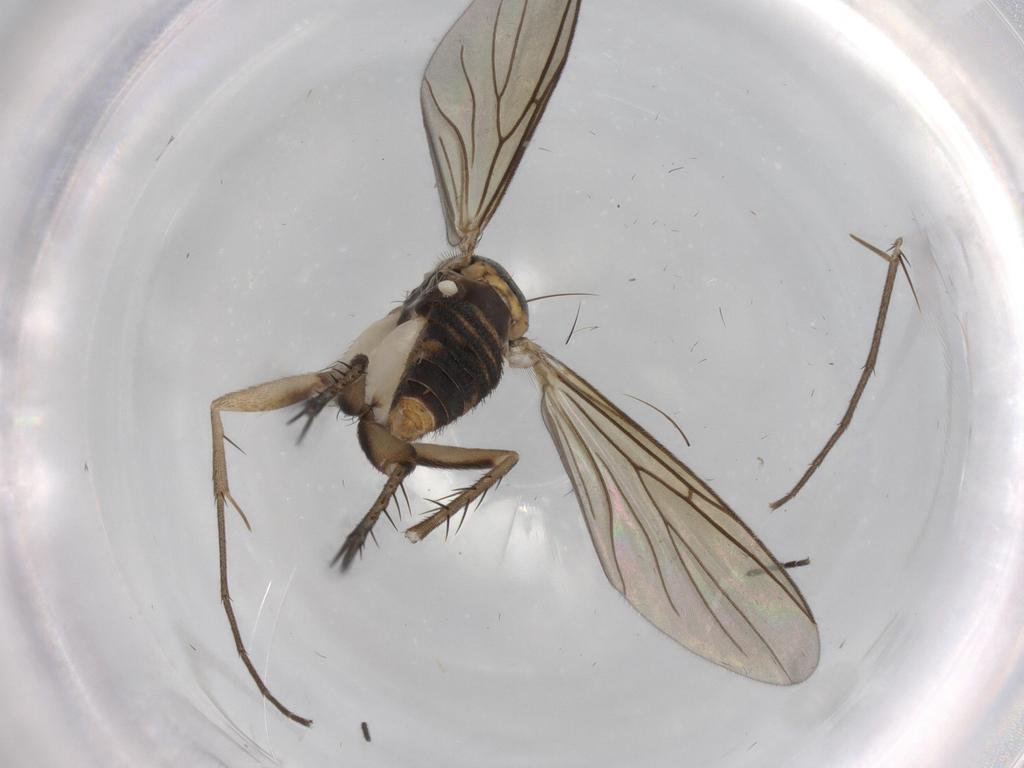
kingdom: Animalia
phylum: Arthropoda
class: Insecta
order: Diptera
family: Mycetophilidae
